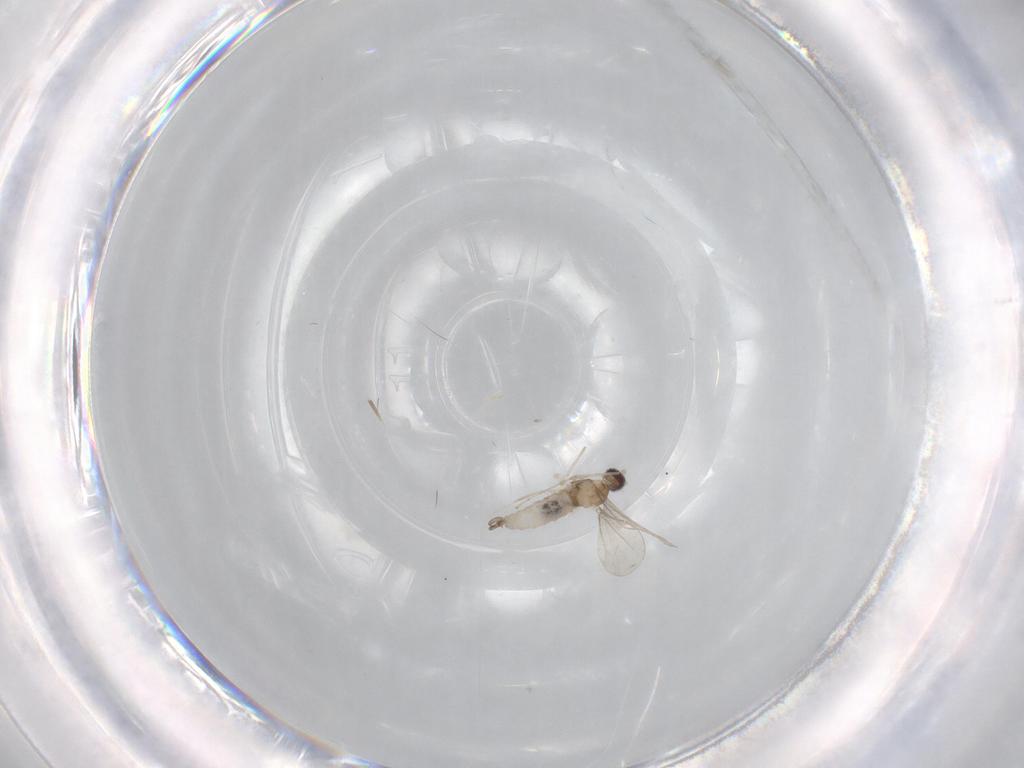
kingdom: Animalia
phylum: Arthropoda
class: Insecta
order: Diptera
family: Cecidomyiidae
